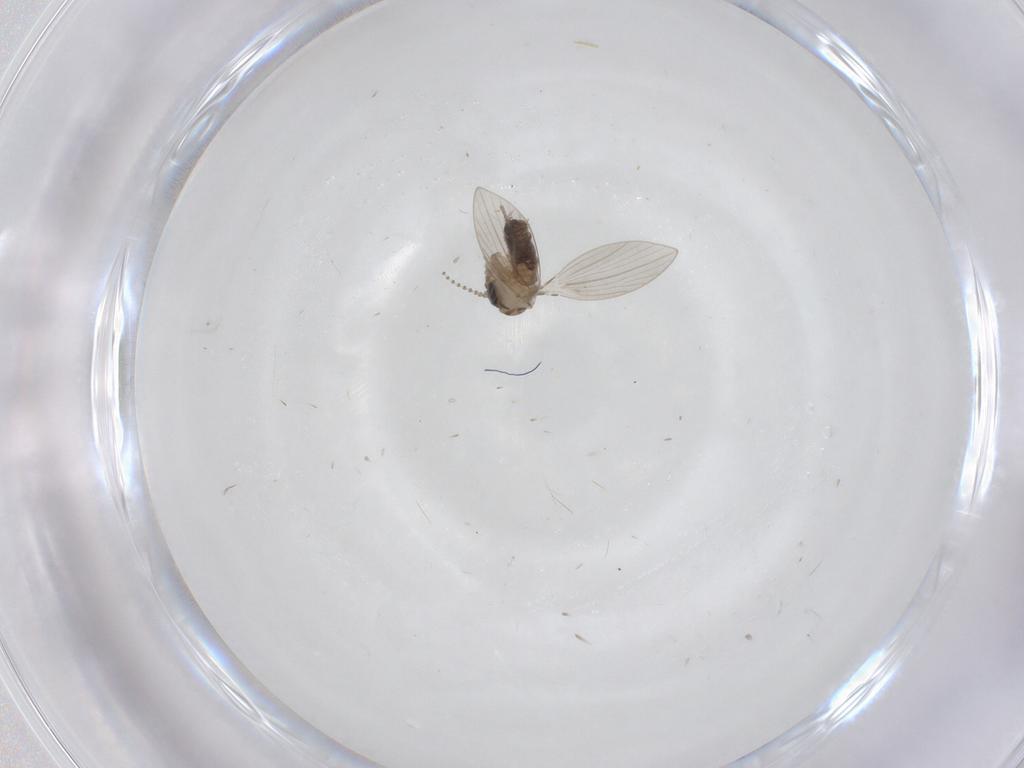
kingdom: Animalia
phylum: Arthropoda
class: Insecta
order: Diptera
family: Psychodidae
